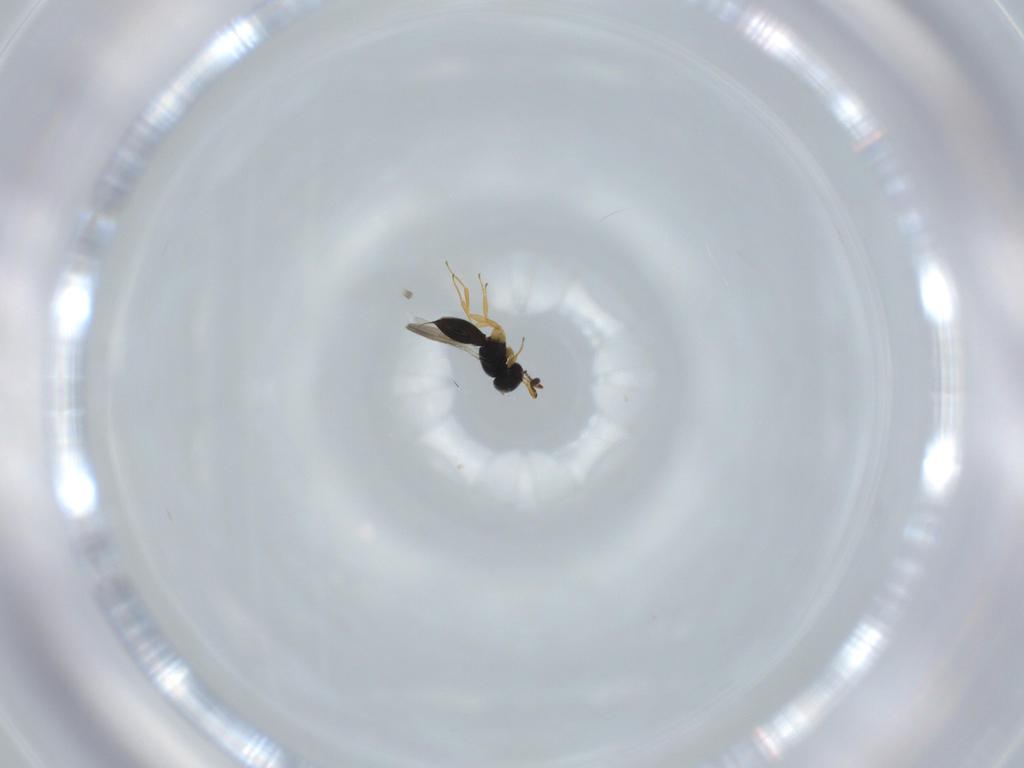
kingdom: Animalia
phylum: Arthropoda
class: Insecta
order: Hymenoptera
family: Scelionidae
